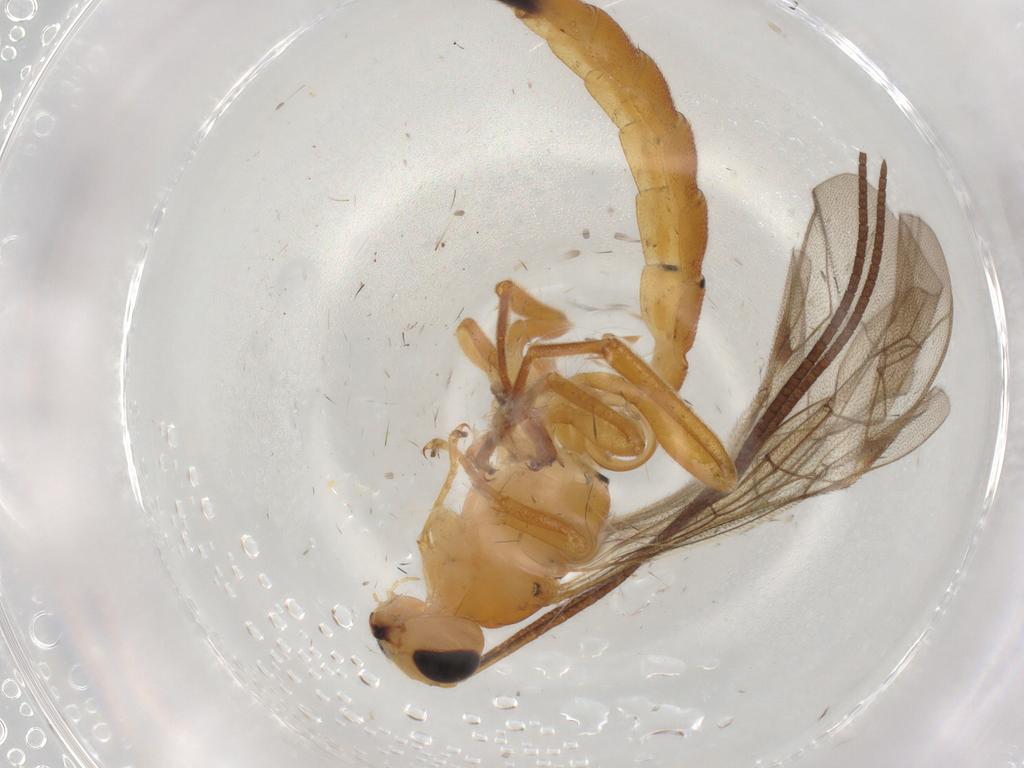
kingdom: Animalia
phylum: Arthropoda
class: Insecta
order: Hymenoptera
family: Ichneumonidae
